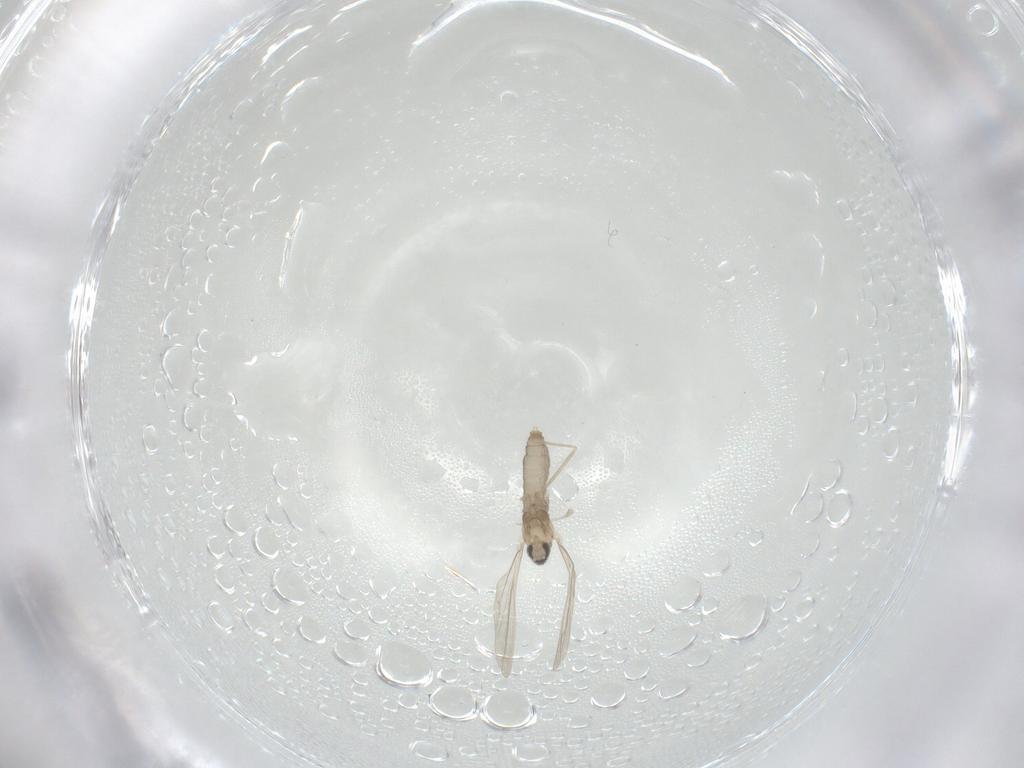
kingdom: Animalia
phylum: Arthropoda
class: Insecta
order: Diptera
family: Cecidomyiidae
